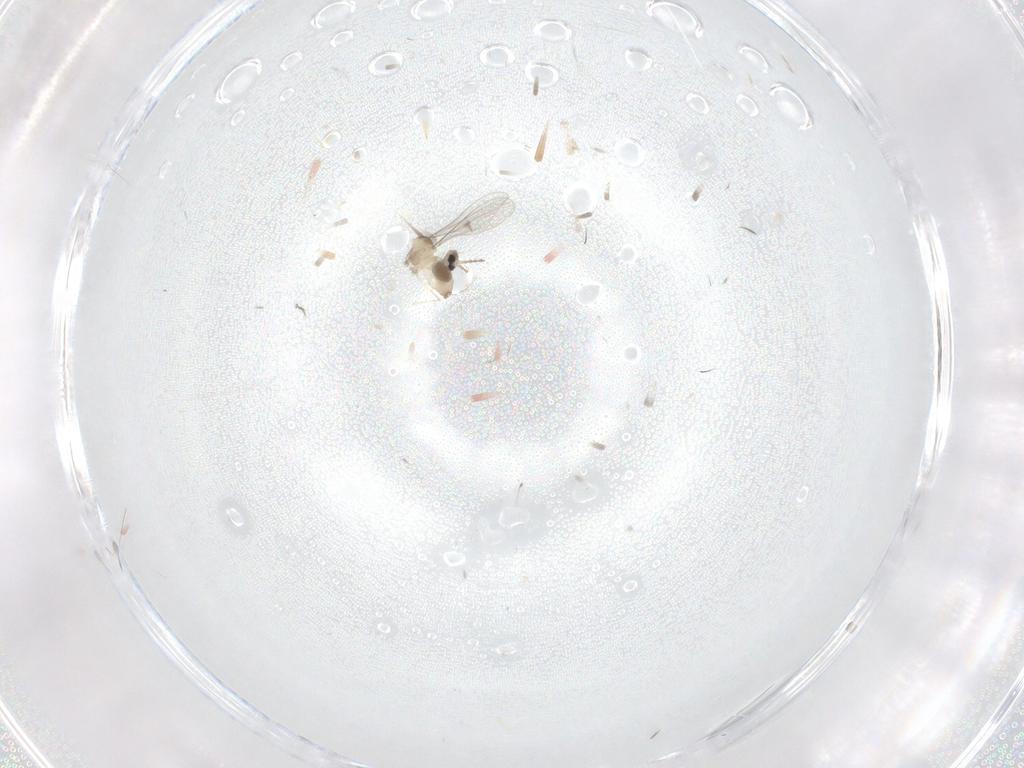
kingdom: Animalia
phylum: Arthropoda
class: Insecta
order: Diptera
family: Cecidomyiidae
